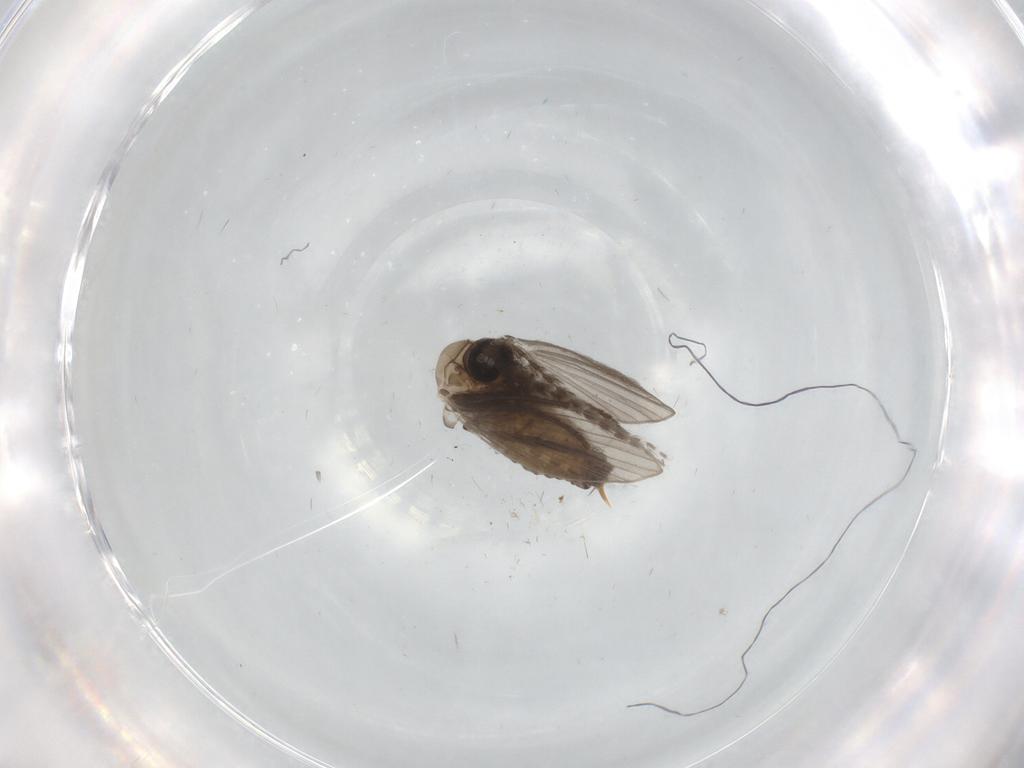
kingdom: Animalia
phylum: Arthropoda
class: Insecta
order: Diptera
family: Psychodidae
